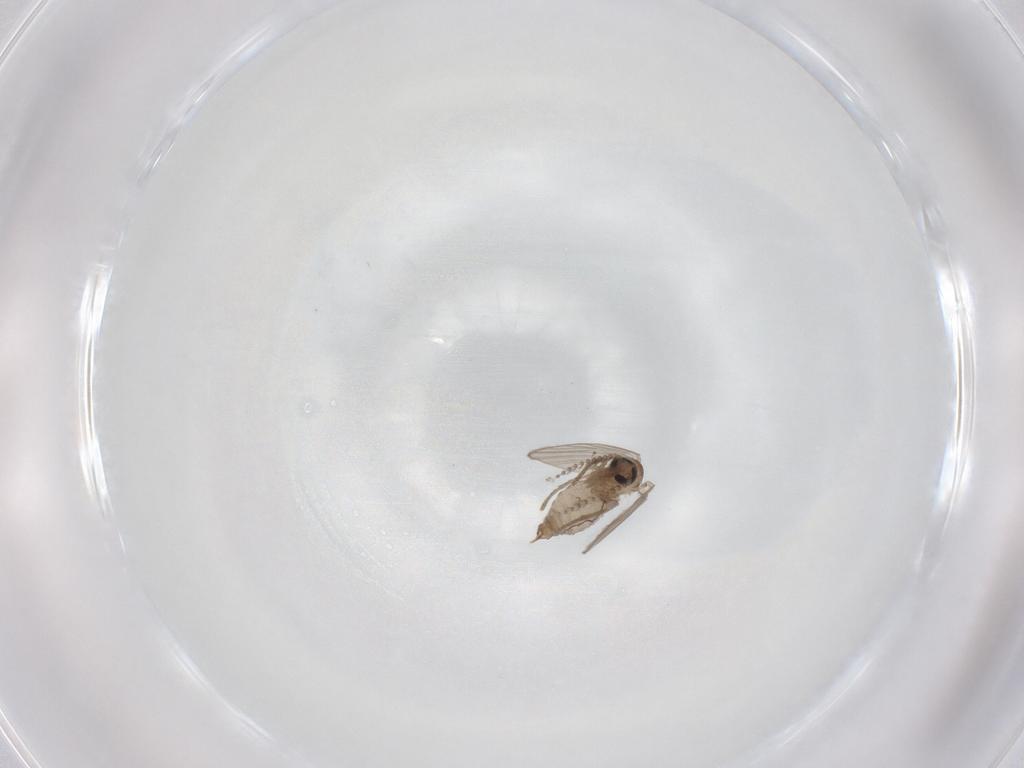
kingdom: Animalia
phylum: Arthropoda
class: Insecta
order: Diptera
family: Psychodidae
